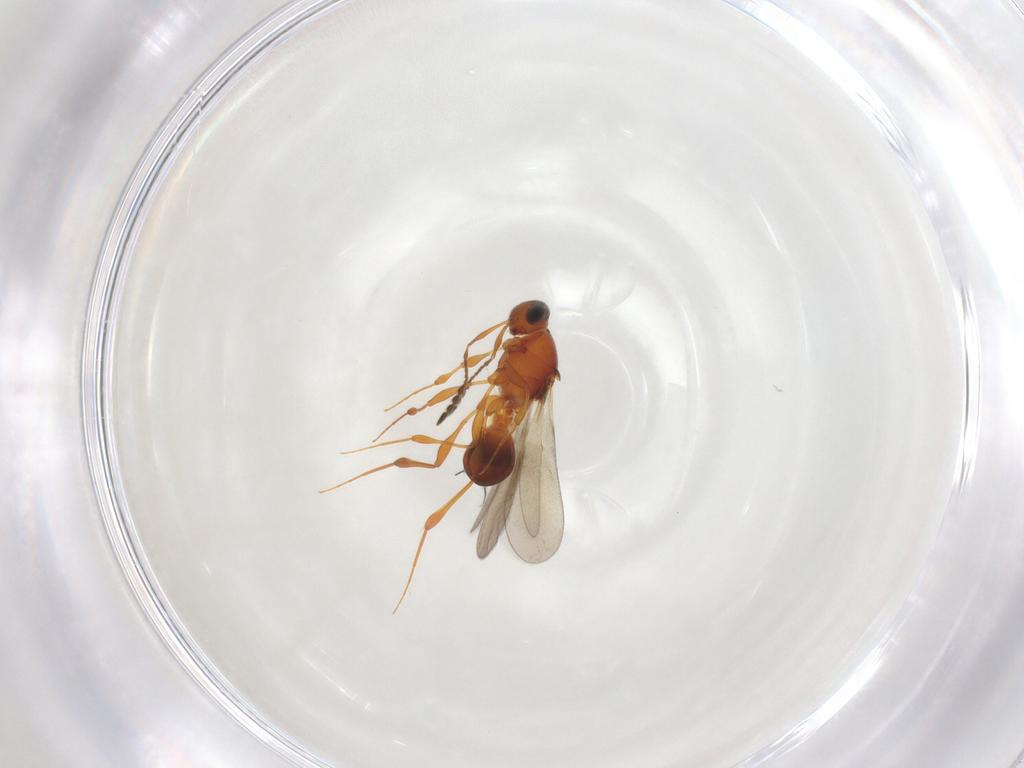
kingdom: Animalia
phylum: Arthropoda
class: Insecta
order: Hymenoptera
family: Platygastridae
